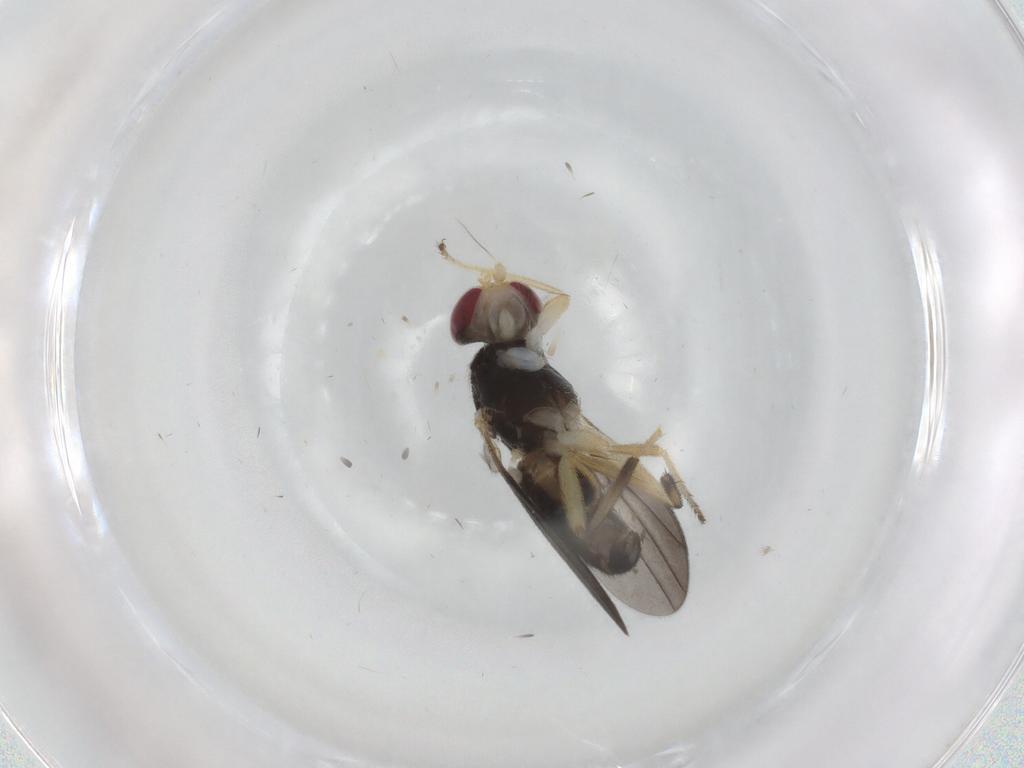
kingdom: Animalia
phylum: Arthropoda
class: Insecta
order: Diptera
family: Clusiidae
